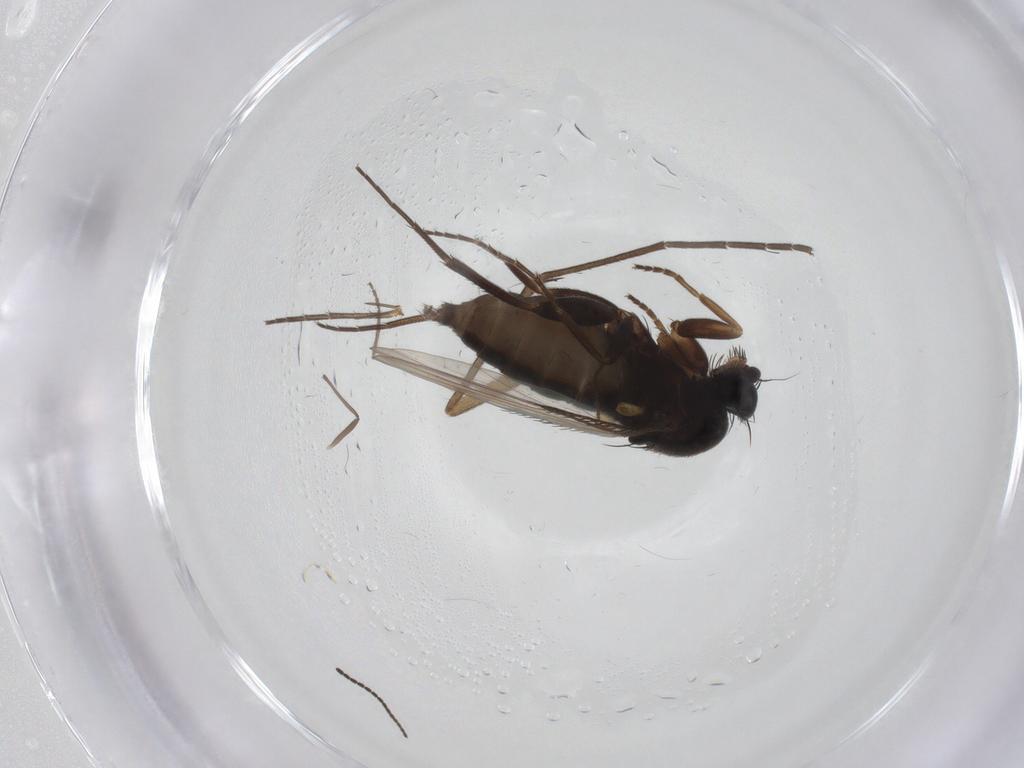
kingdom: Animalia
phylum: Arthropoda
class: Insecta
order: Diptera
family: Phoridae
